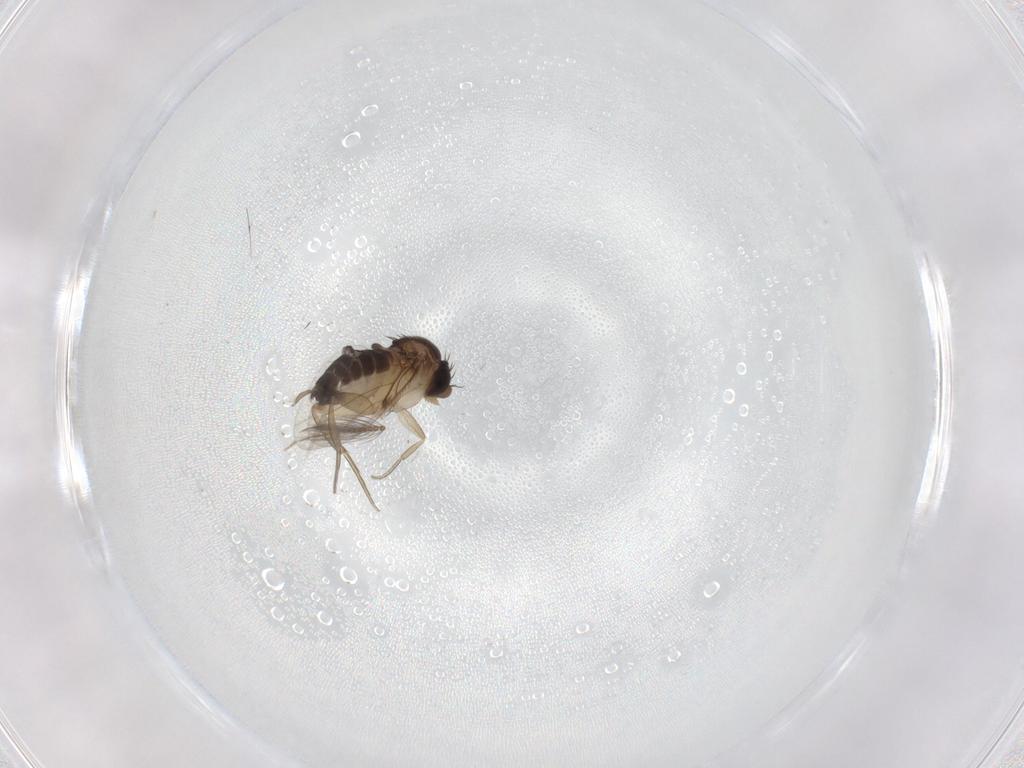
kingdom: Animalia
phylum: Arthropoda
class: Insecta
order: Diptera
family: Ceratopogonidae
